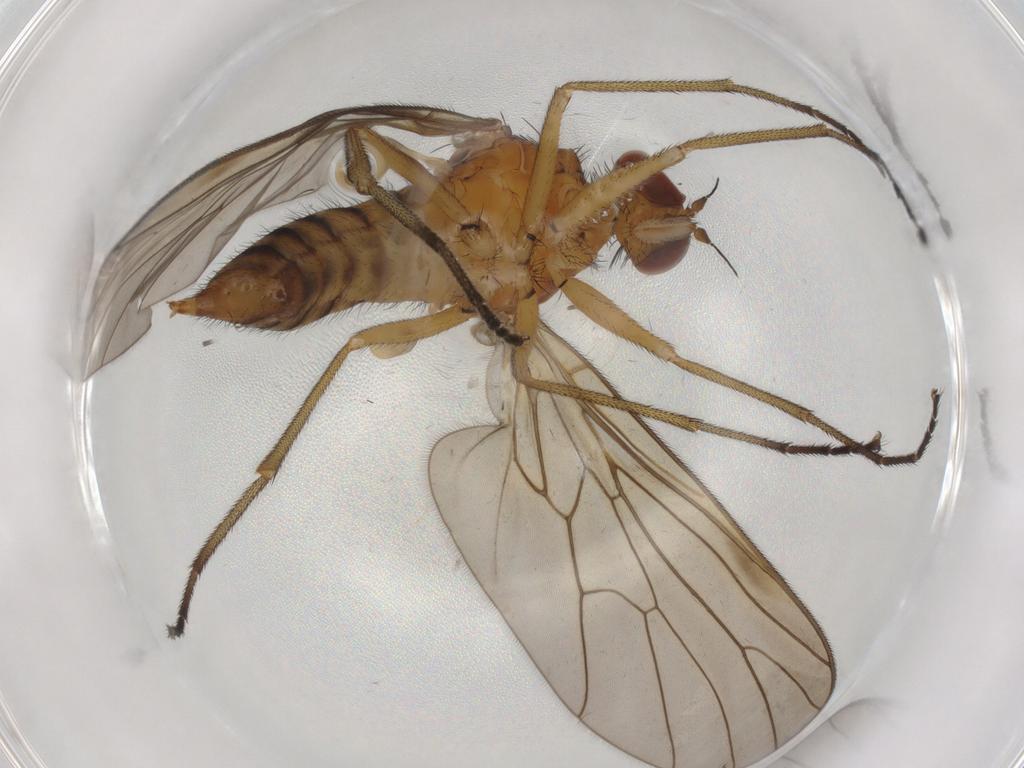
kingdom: Animalia
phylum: Arthropoda
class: Insecta
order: Diptera
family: Brachystomatidae
